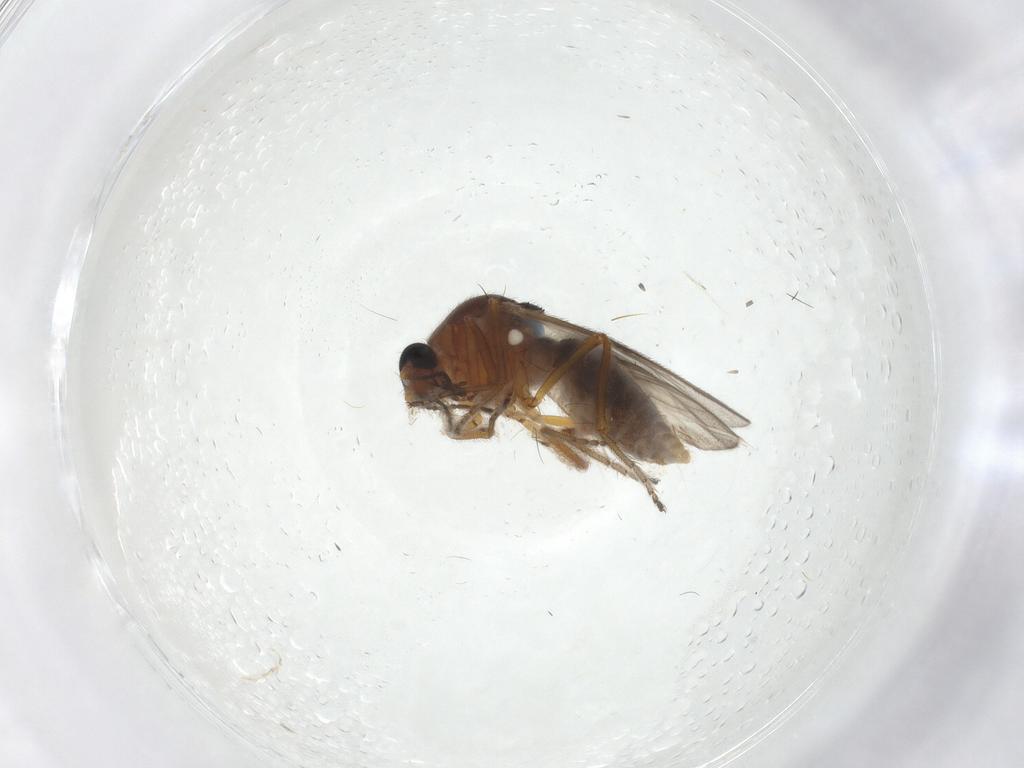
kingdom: Animalia
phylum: Arthropoda
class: Insecta
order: Diptera
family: Ceratopogonidae
